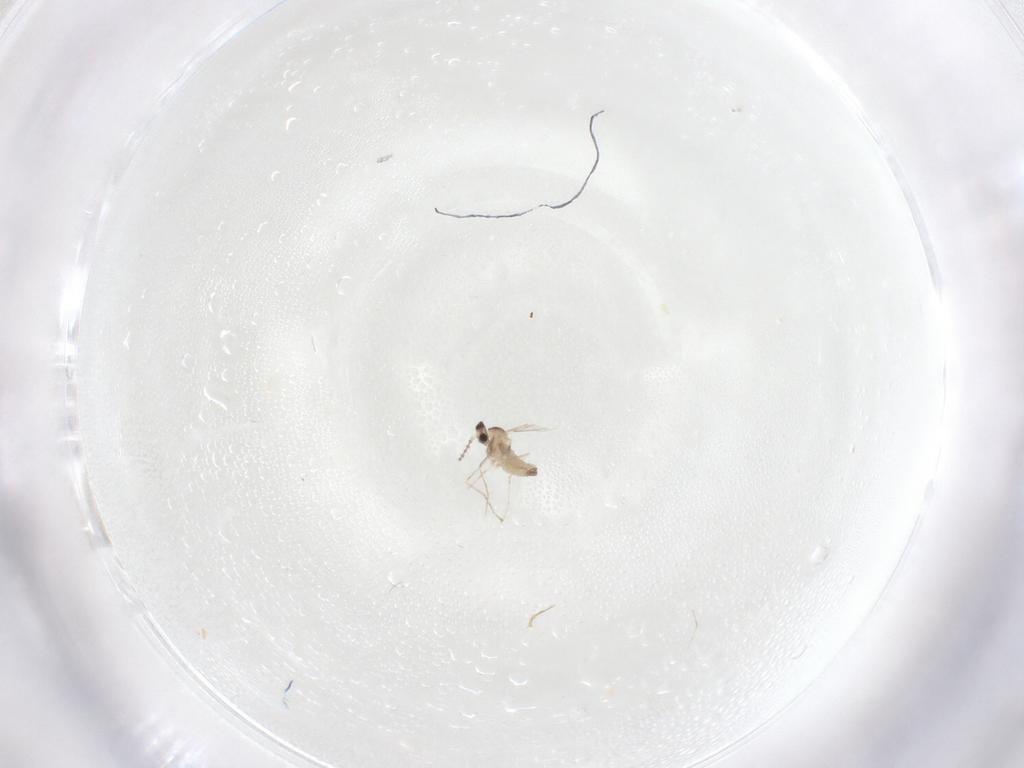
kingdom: Animalia
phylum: Arthropoda
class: Insecta
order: Diptera
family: Cecidomyiidae
